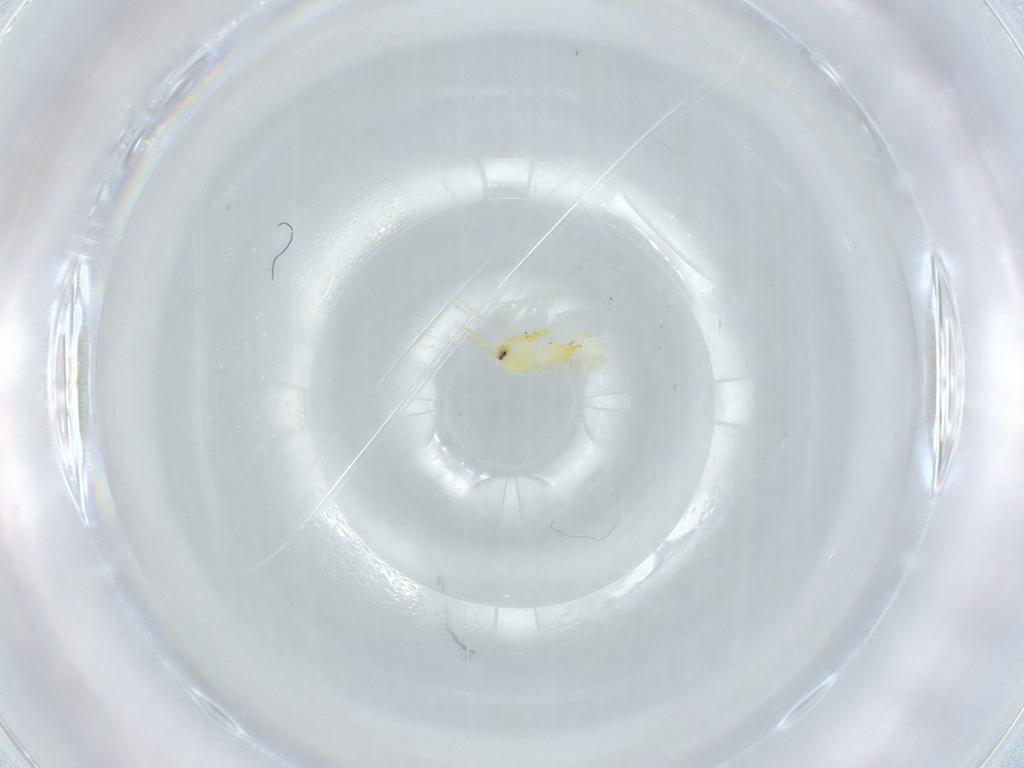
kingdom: Animalia
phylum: Arthropoda
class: Insecta
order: Hemiptera
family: Aleyrodidae
